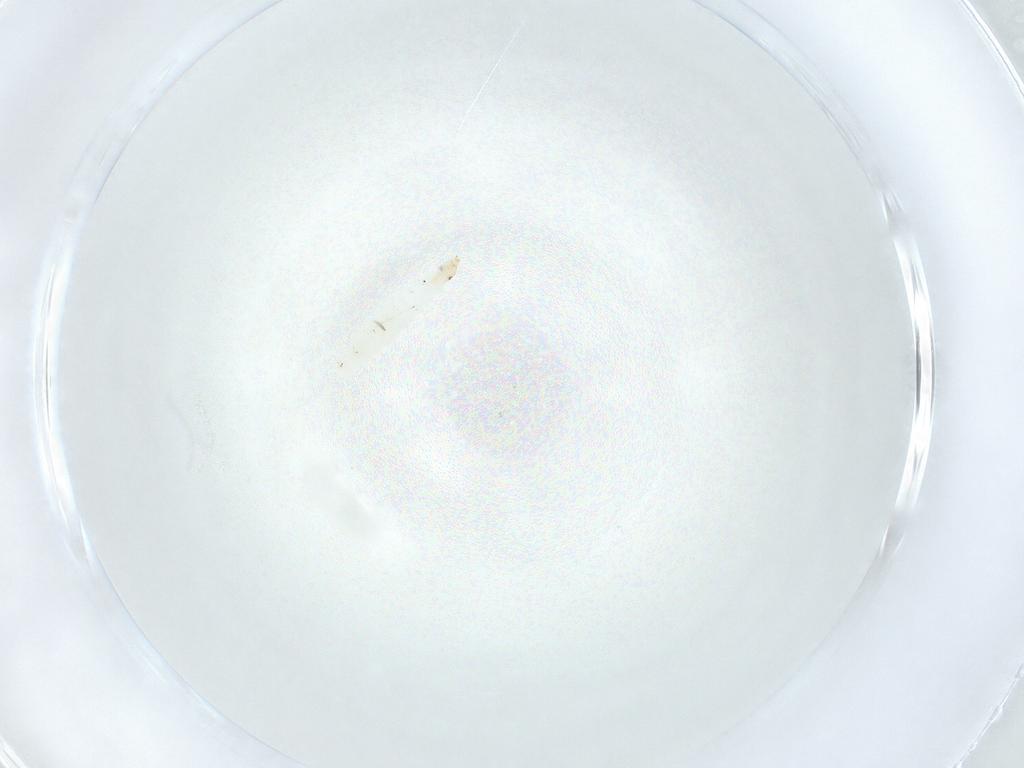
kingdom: Animalia
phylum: Arthropoda
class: Insecta
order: Diptera
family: Stratiomyidae
